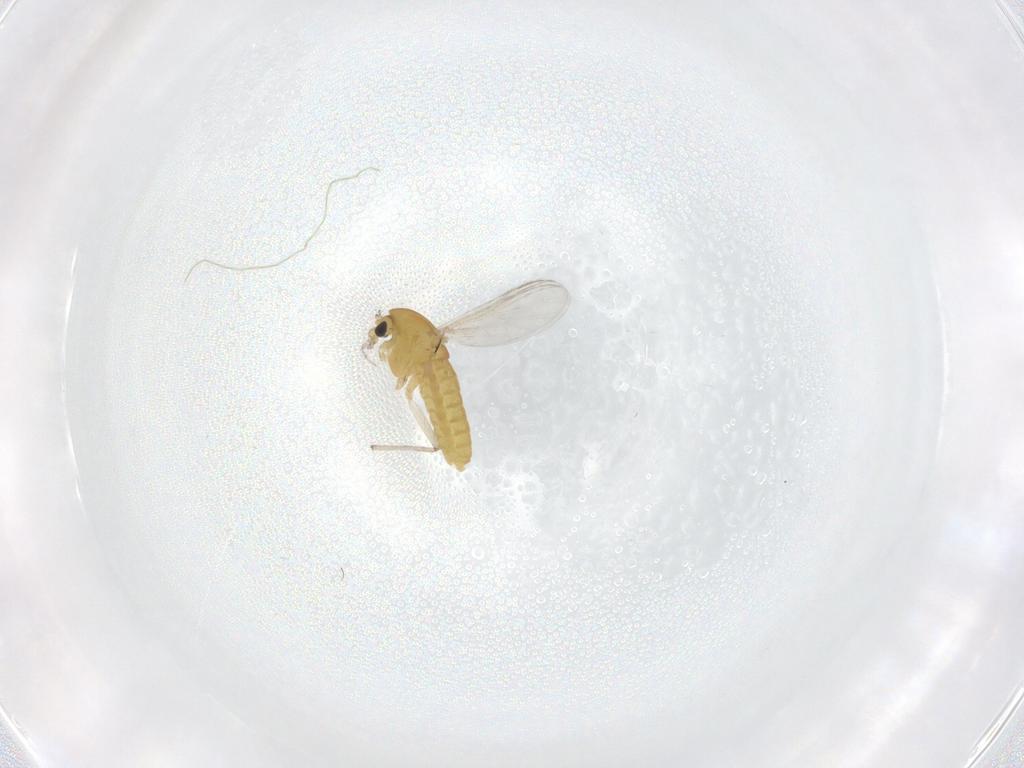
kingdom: Animalia
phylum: Arthropoda
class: Insecta
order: Diptera
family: Chironomidae
